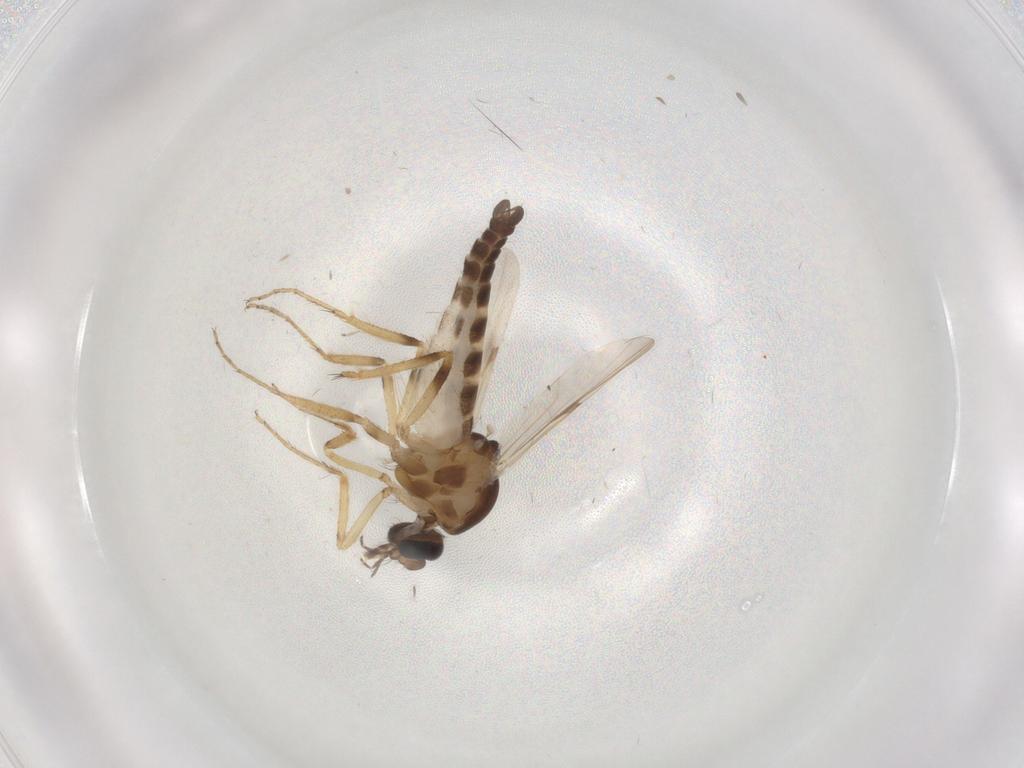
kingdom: Animalia
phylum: Arthropoda
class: Insecta
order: Diptera
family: Sciaridae
